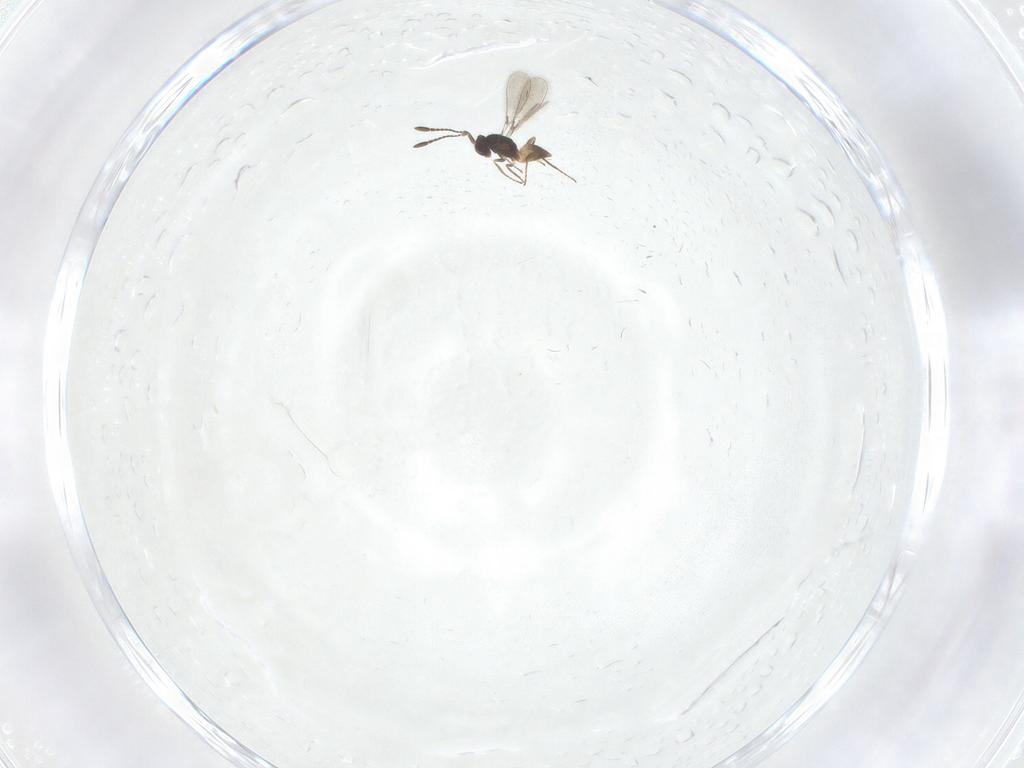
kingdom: Animalia
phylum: Arthropoda
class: Insecta
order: Hymenoptera
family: Mymaridae
